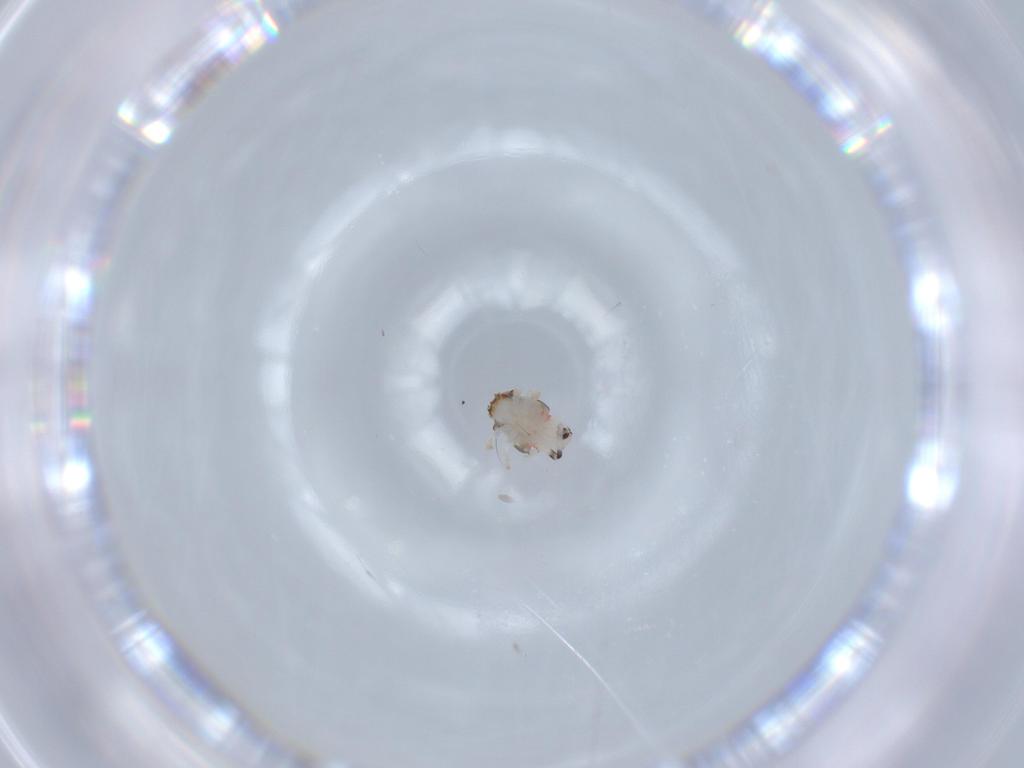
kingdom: Animalia
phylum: Arthropoda
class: Insecta
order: Hemiptera
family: Nogodinidae
